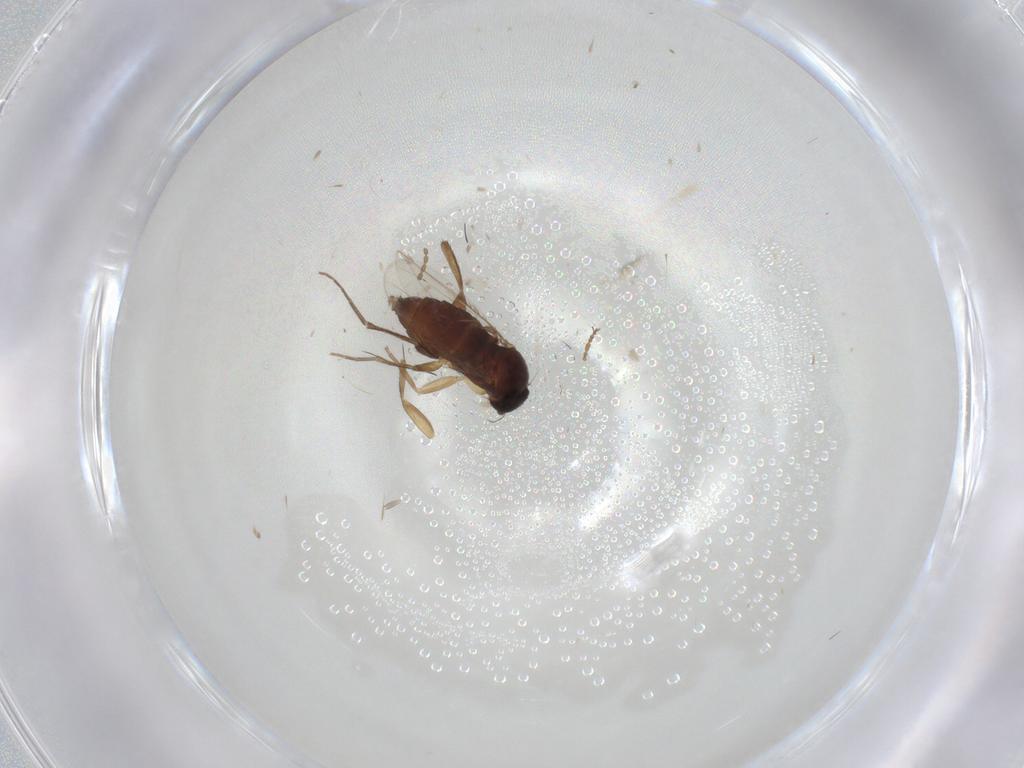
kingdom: Animalia
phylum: Arthropoda
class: Insecta
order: Diptera
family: Phoridae
